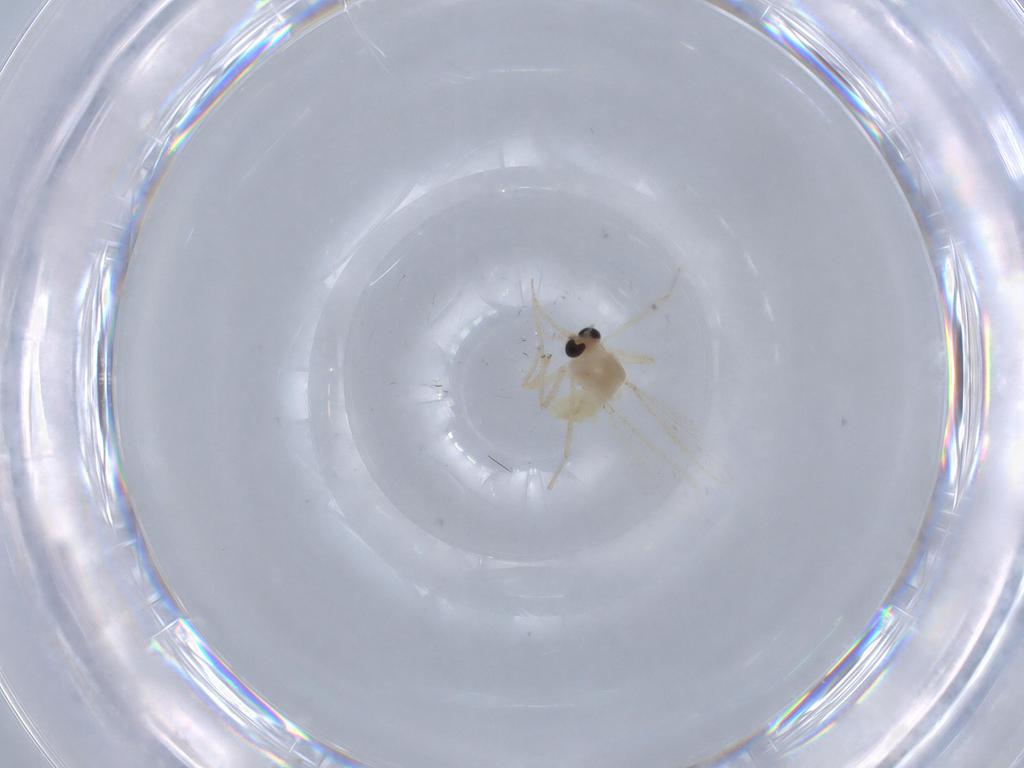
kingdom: Animalia
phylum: Arthropoda
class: Insecta
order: Diptera
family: Chironomidae
